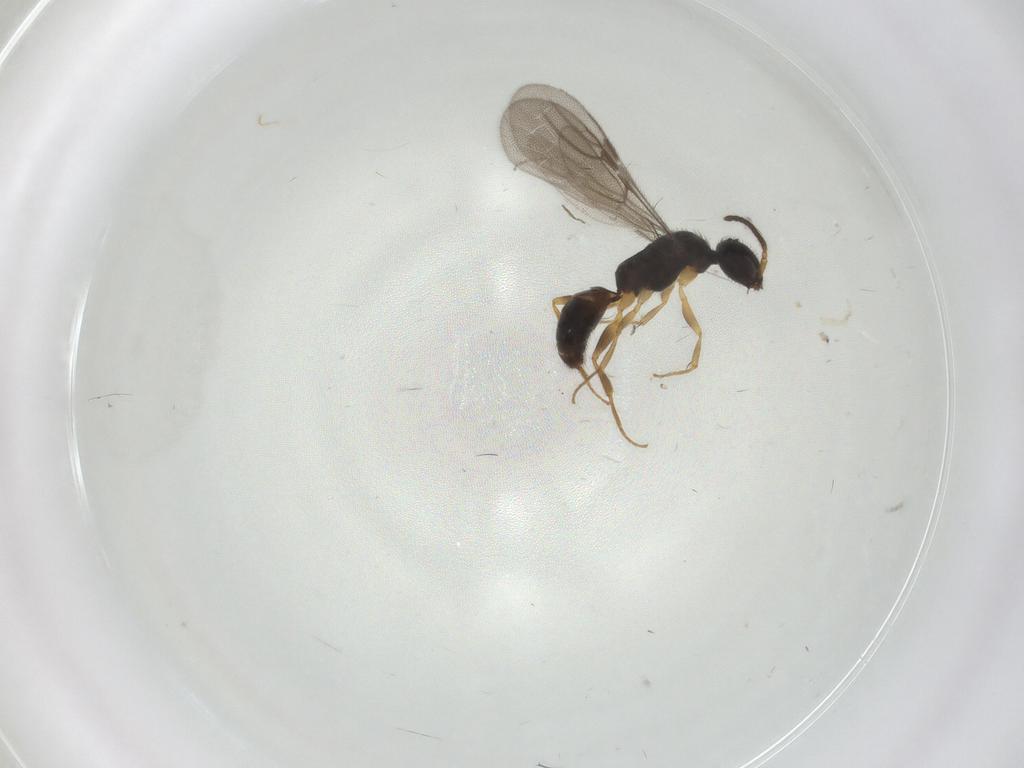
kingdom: Animalia
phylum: Arthropoda
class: Insecta
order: Hymenoptera
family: Bethylidae
